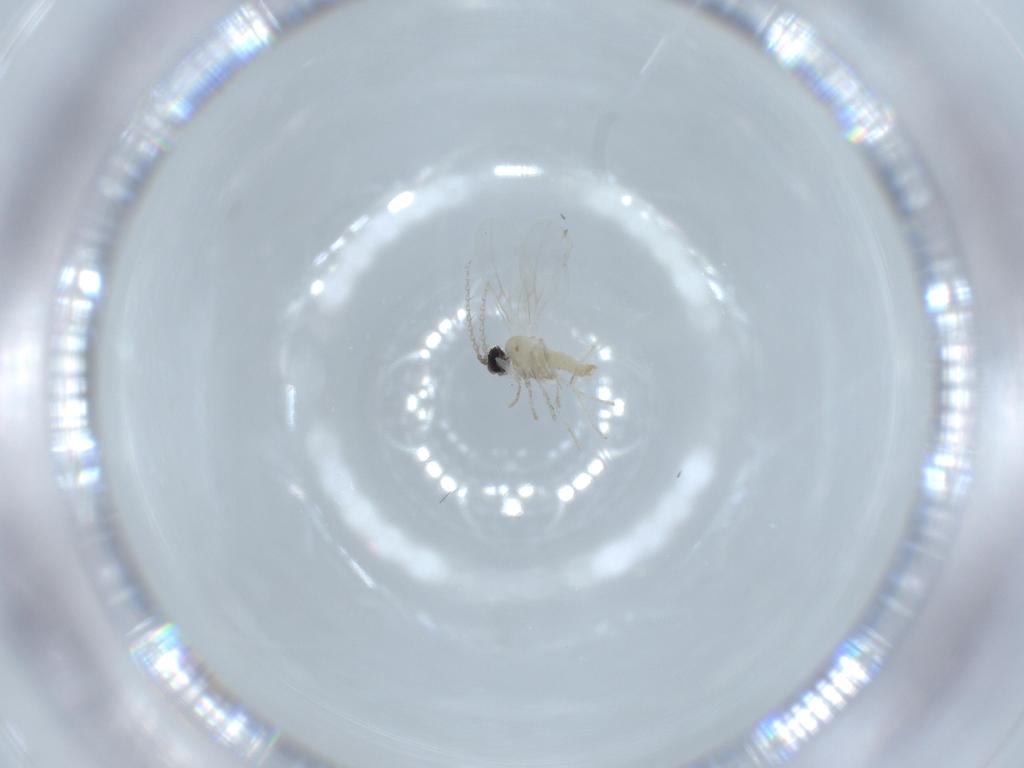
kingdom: Animalia
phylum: Arthropoda
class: Insecta
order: Diptera
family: Cecidomyiidae
